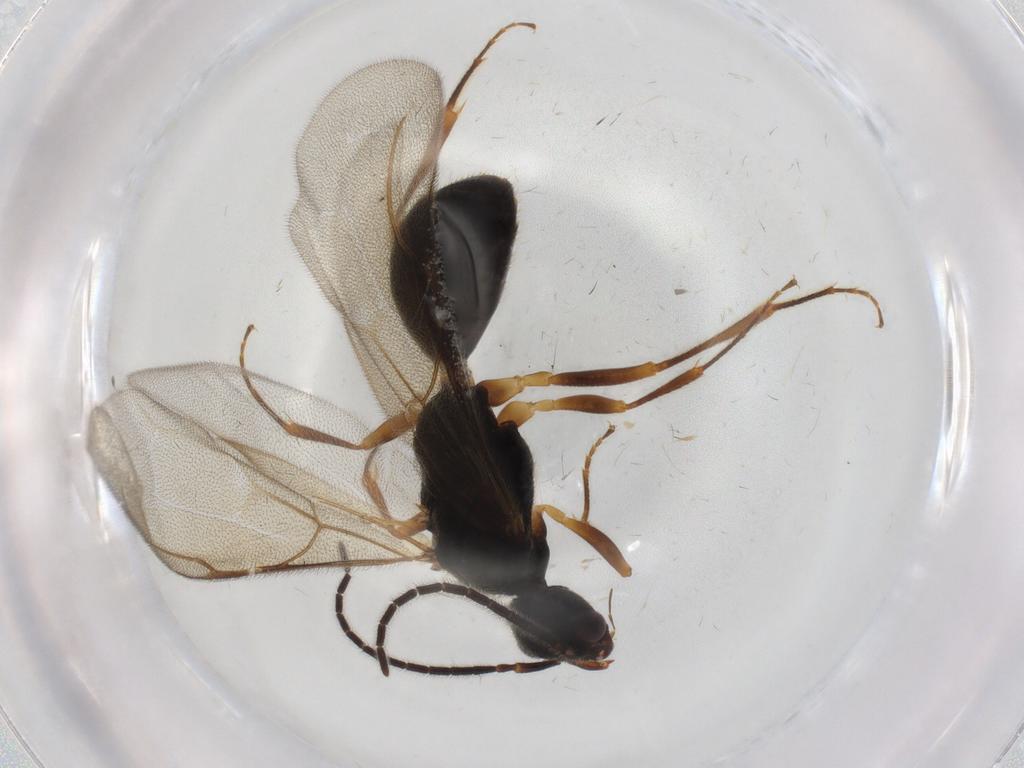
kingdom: Animalia
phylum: Arthropoda
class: Insecta
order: Hymenoptera
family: Bethylidae
